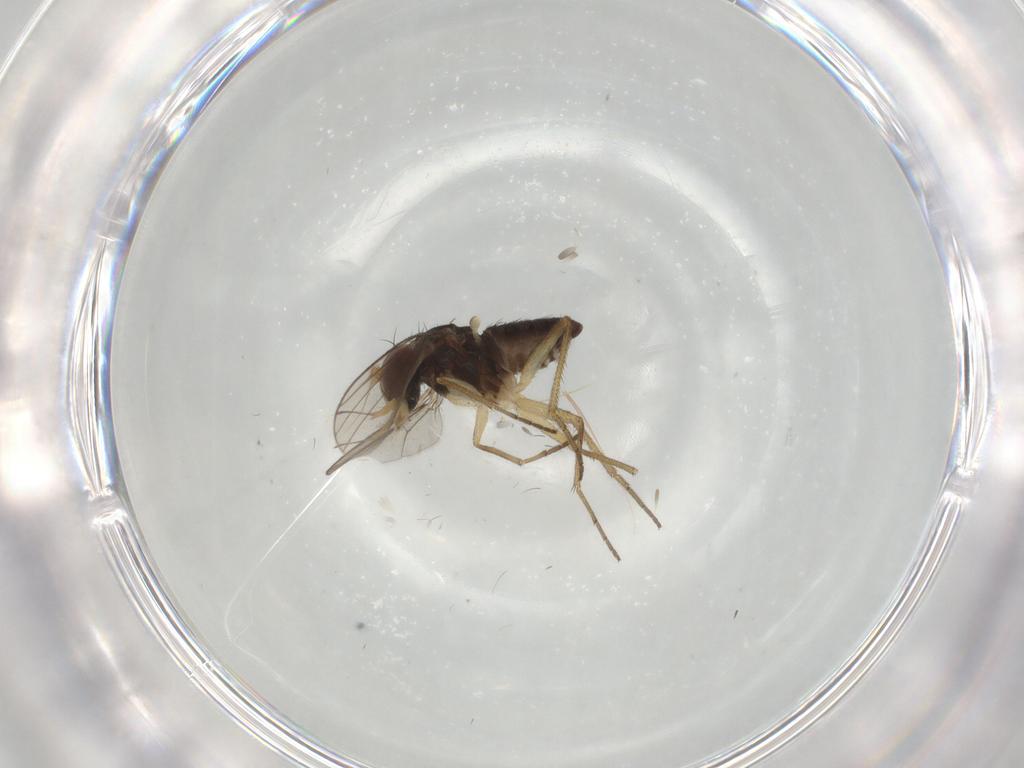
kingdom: Animalia
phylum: Arthropoda
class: Insecta
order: Diptera
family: Dolichopodidae
